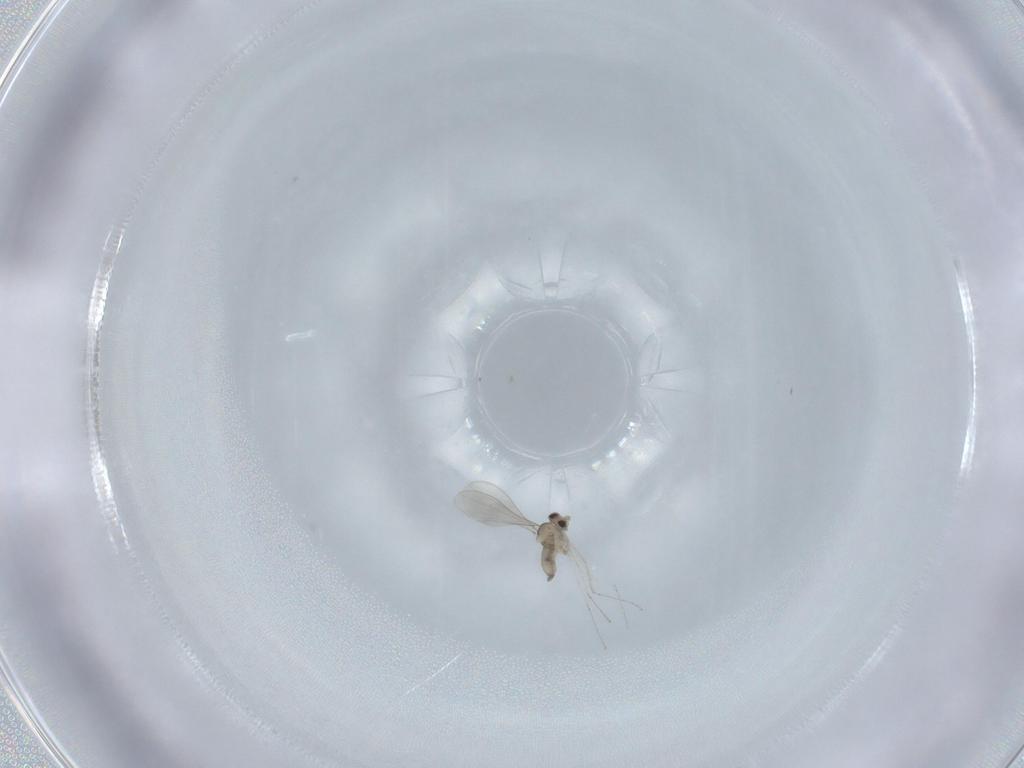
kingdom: Animalia
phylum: Arthropoda
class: Insecta
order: Diptera
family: Cecidomyiidae
